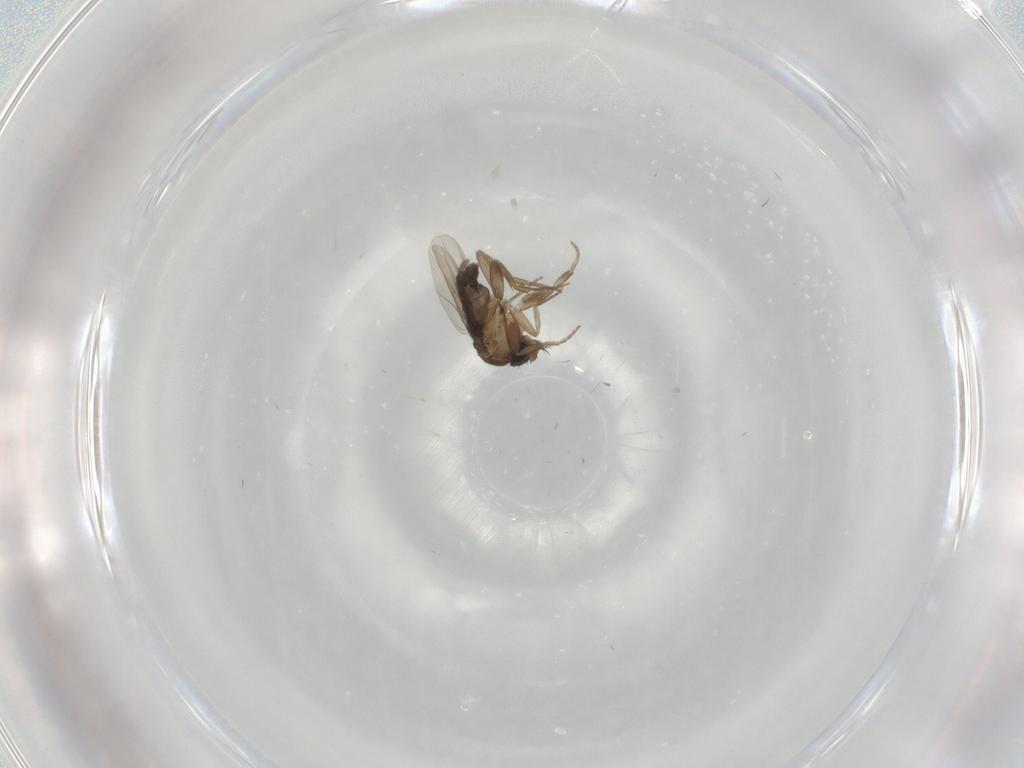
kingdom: Animalia
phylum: Arthropoda
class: Insecta
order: Diptera
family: Phoridae
